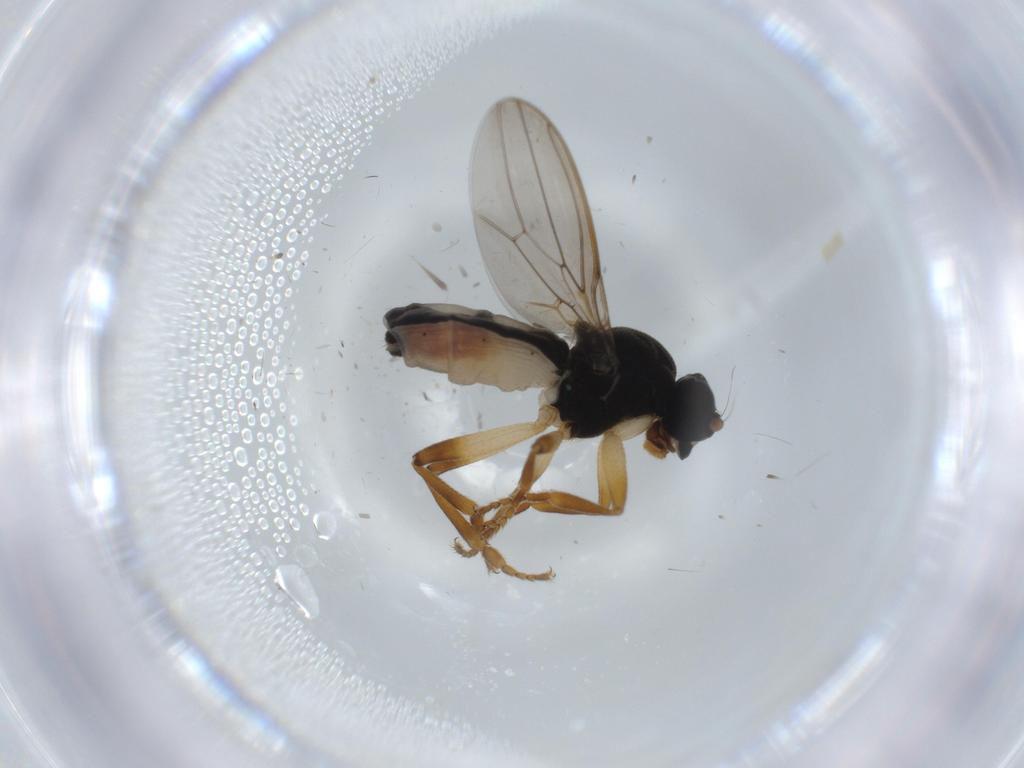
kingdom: Animalia
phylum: Arthropoda
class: Insecta
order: Diptera
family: Sphaeroceridae
